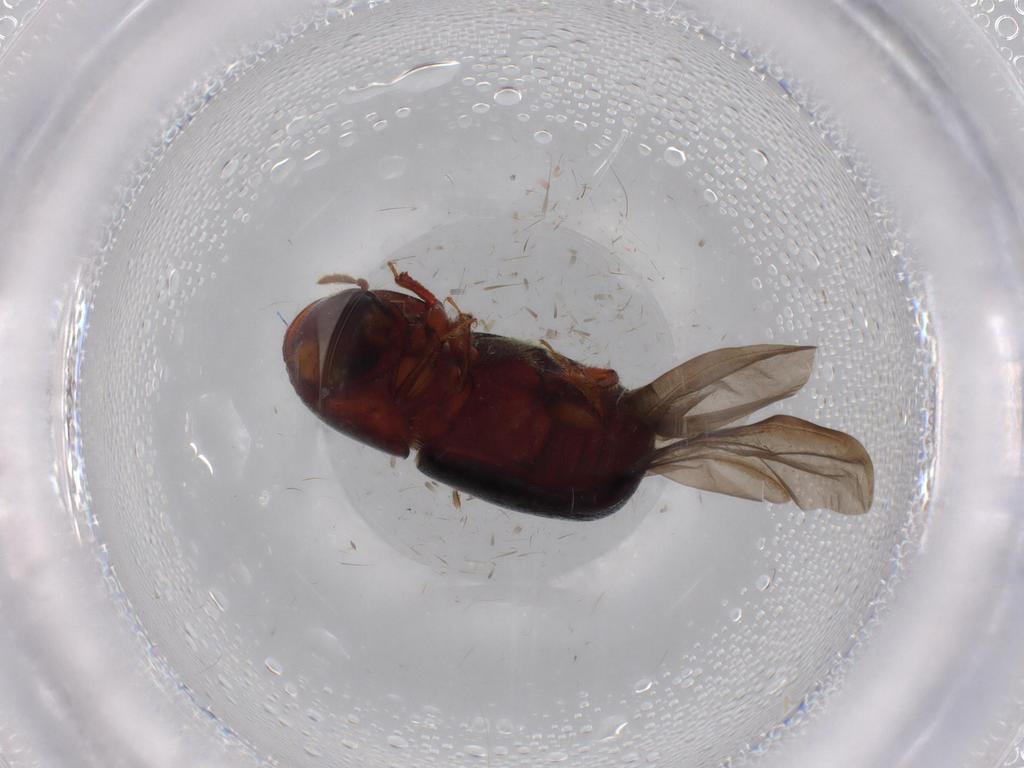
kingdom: Animalia
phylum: Arthropoda
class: Insecta
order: Coleoptera
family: Curculionidae
